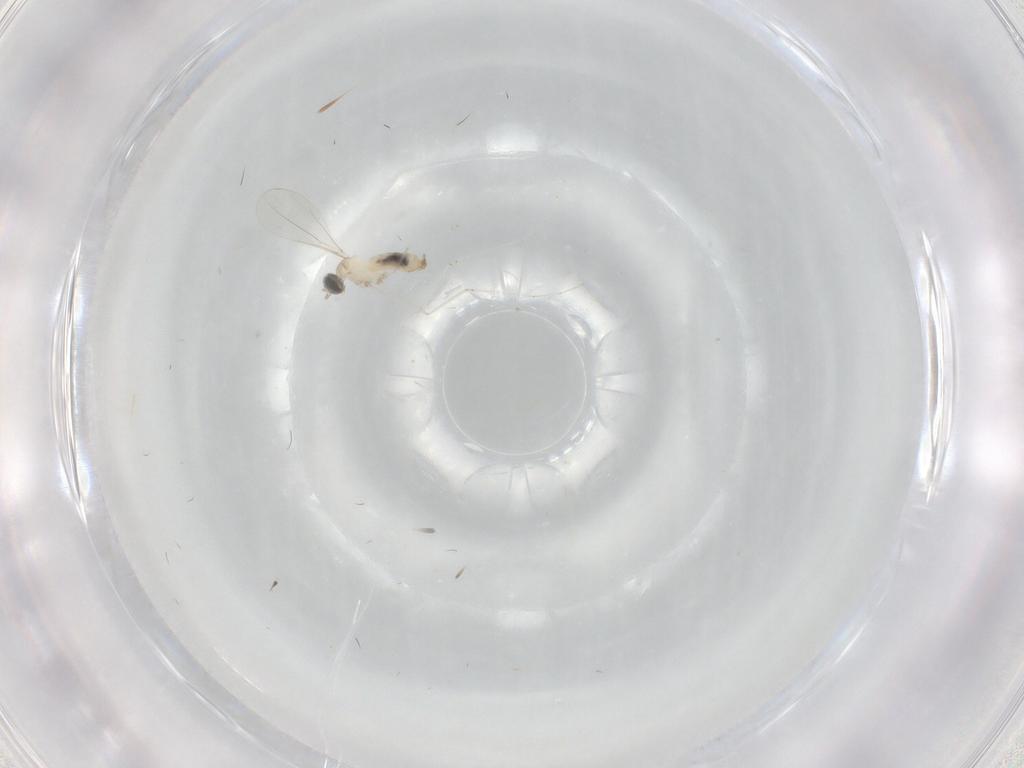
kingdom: Animalia
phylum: Arthropoda
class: Insecta
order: Diptera
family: Cecidomyiidae
